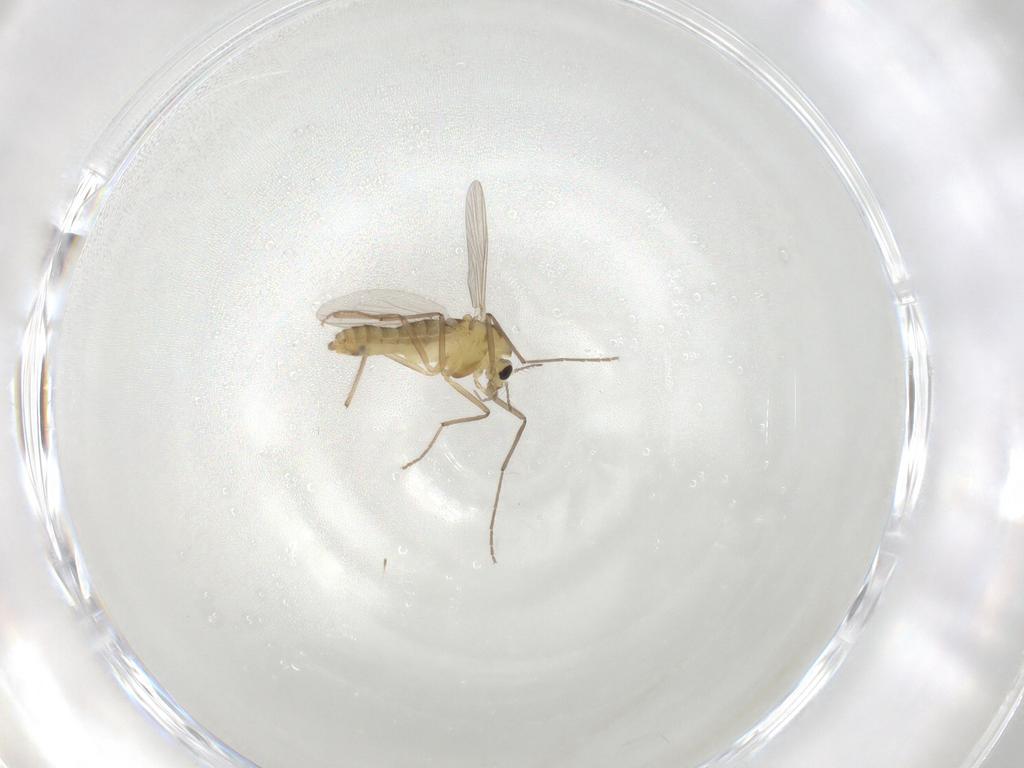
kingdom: Animalia
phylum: Arthropoda
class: Insecta
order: Diptera
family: Chironomidae
